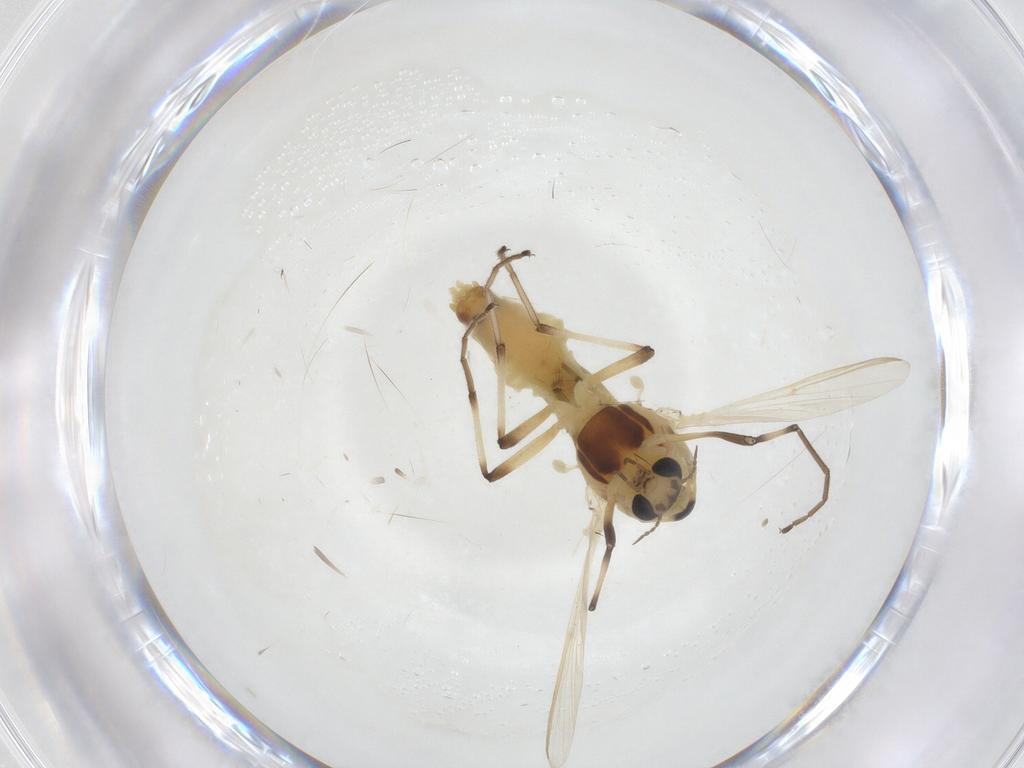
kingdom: Animalia
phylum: Arthropoda
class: Insecta
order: Diptera
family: Chironomidae
